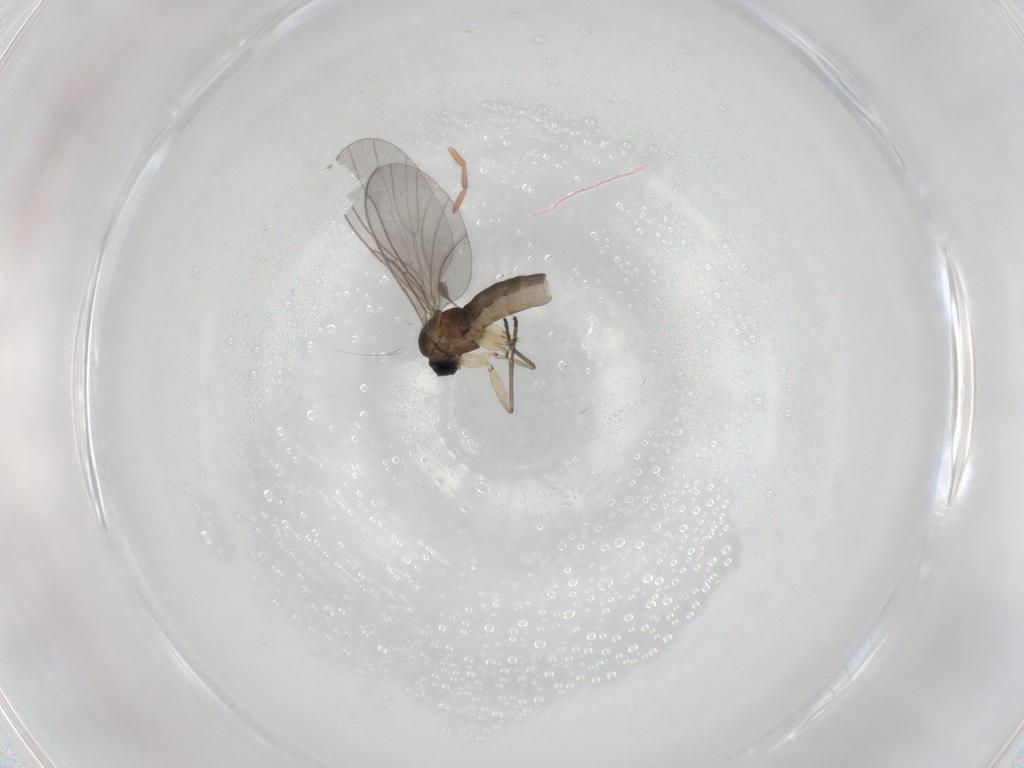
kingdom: Animalia
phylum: Arthropoda
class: Insecta
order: Diptera
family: Sciaridae
